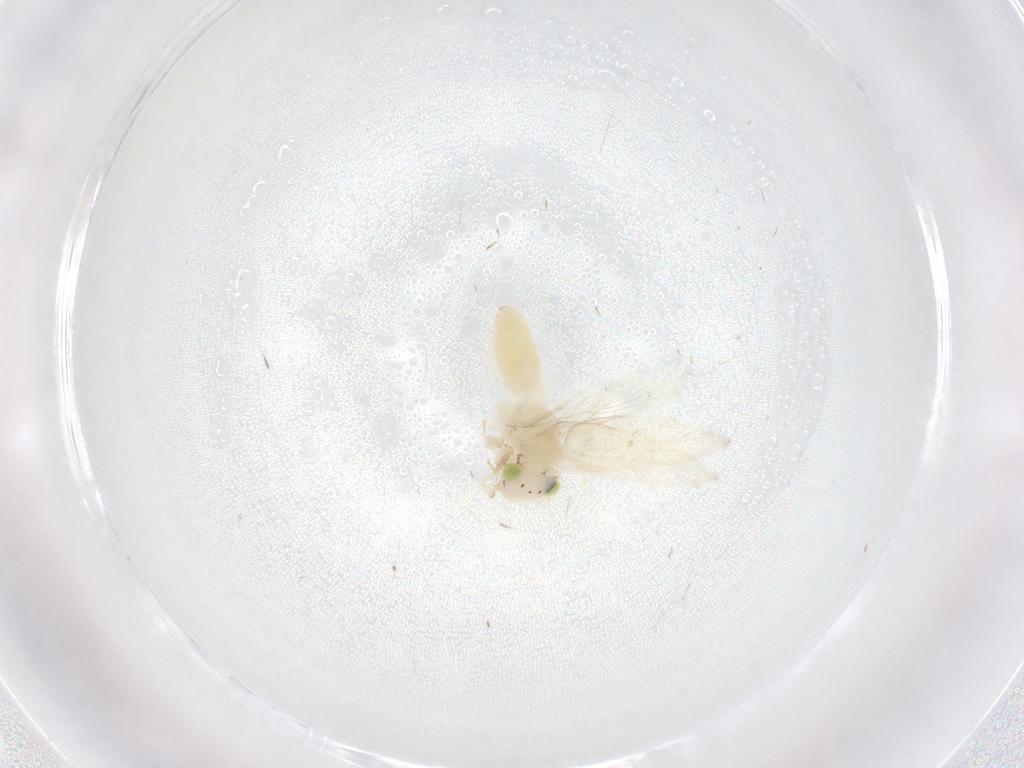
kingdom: Animalia
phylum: Arthropoda
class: Insecta
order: Psocodea
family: Lepidopsocidae
